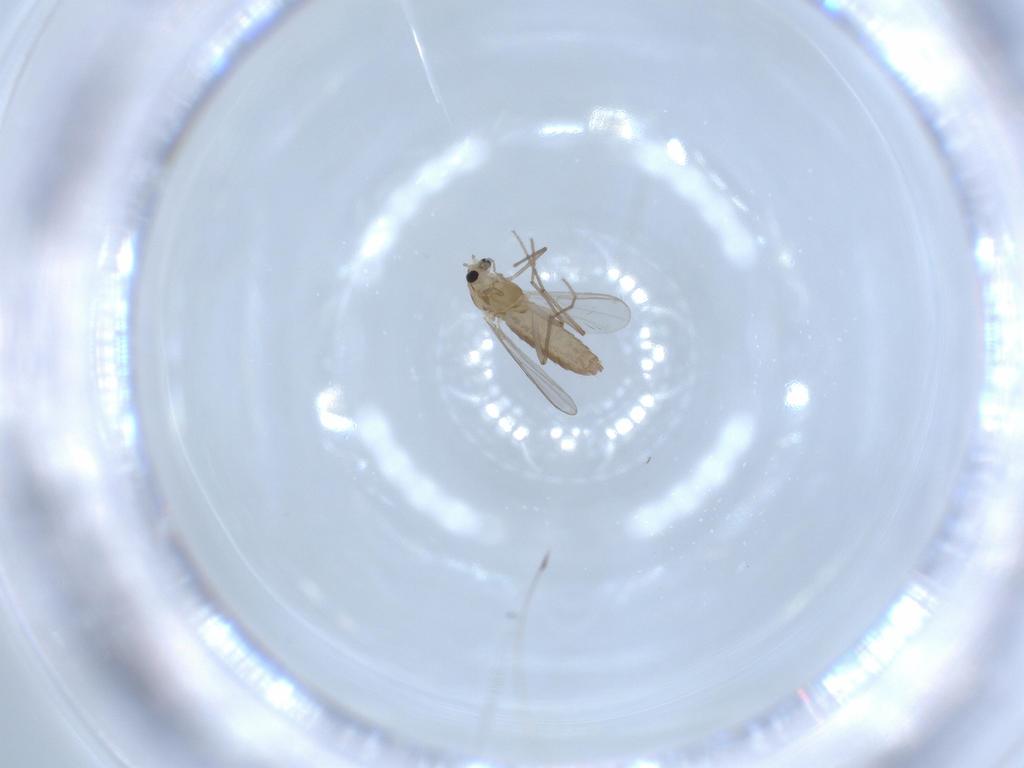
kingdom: Animalia
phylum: Arthropoda
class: Insecta
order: Diptera
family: Chironomidae
